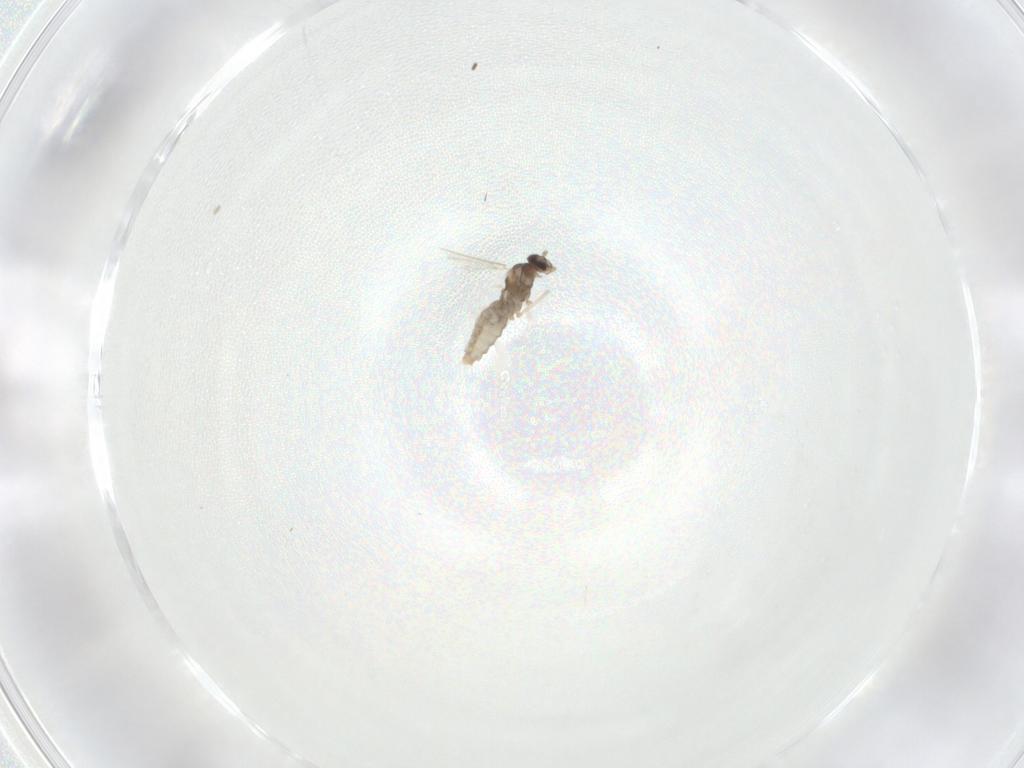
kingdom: Animalia
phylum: Arthropoda
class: Insecta
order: Diptera
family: Cecidomyiidae
